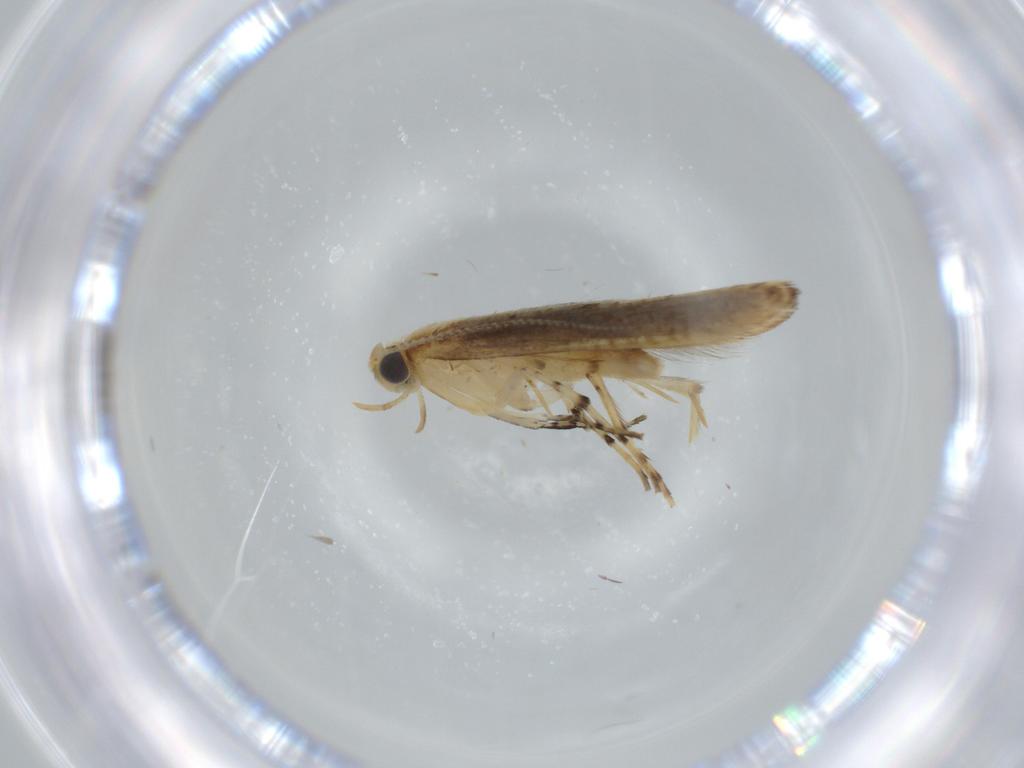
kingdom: Animalia
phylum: Arthropoda
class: Insecta
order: Lepidoptera
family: Argyresthiidae
